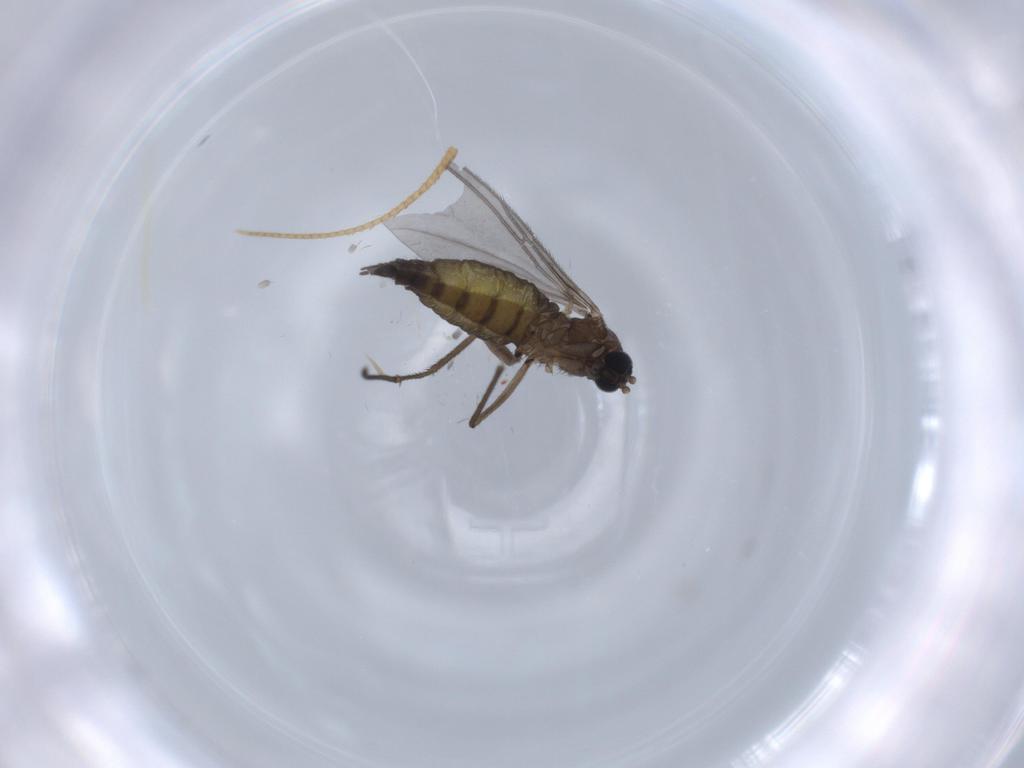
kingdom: Animalia
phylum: Arthropoda
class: Insecta
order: Diptera
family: Sciaridae
